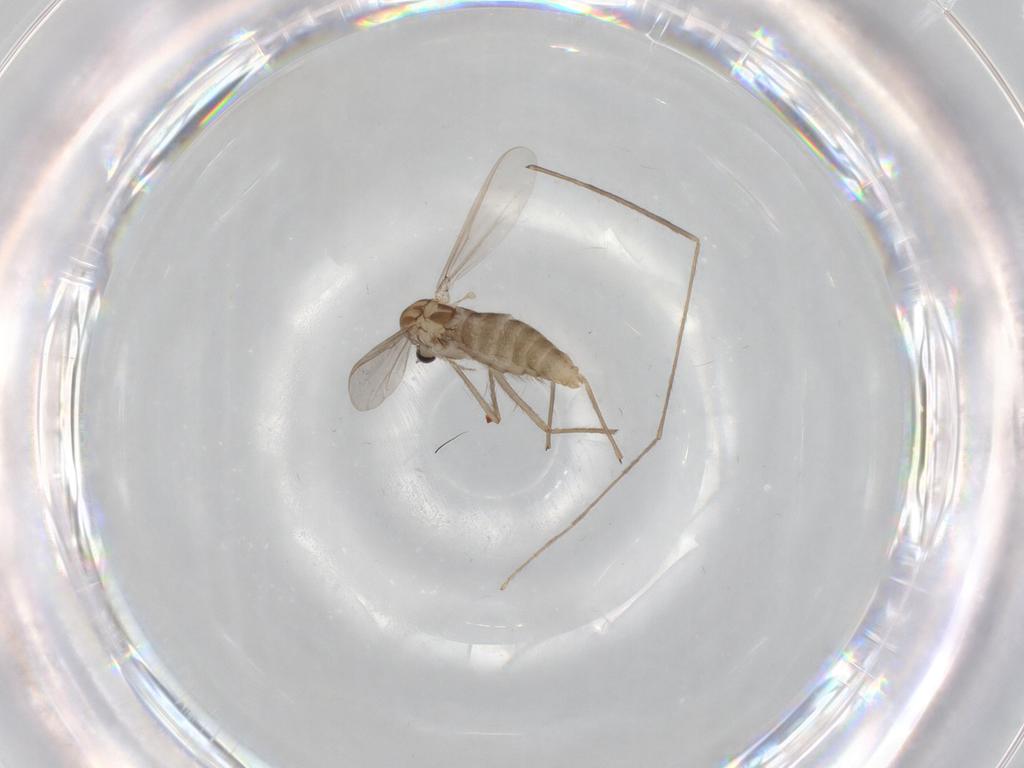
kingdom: Animalia
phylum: Arthropoda
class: Insecta
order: Diptera
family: Chironomidae
